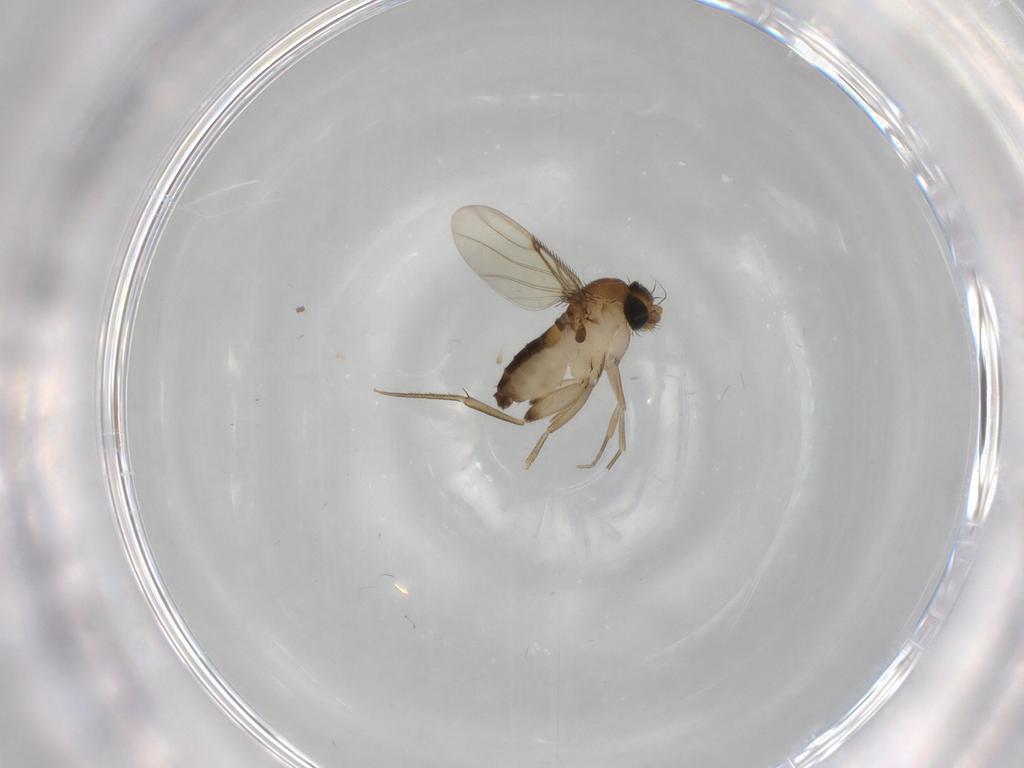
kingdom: Animalia
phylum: Arthropoda
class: Insecta
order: Diptera
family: Phoridae
